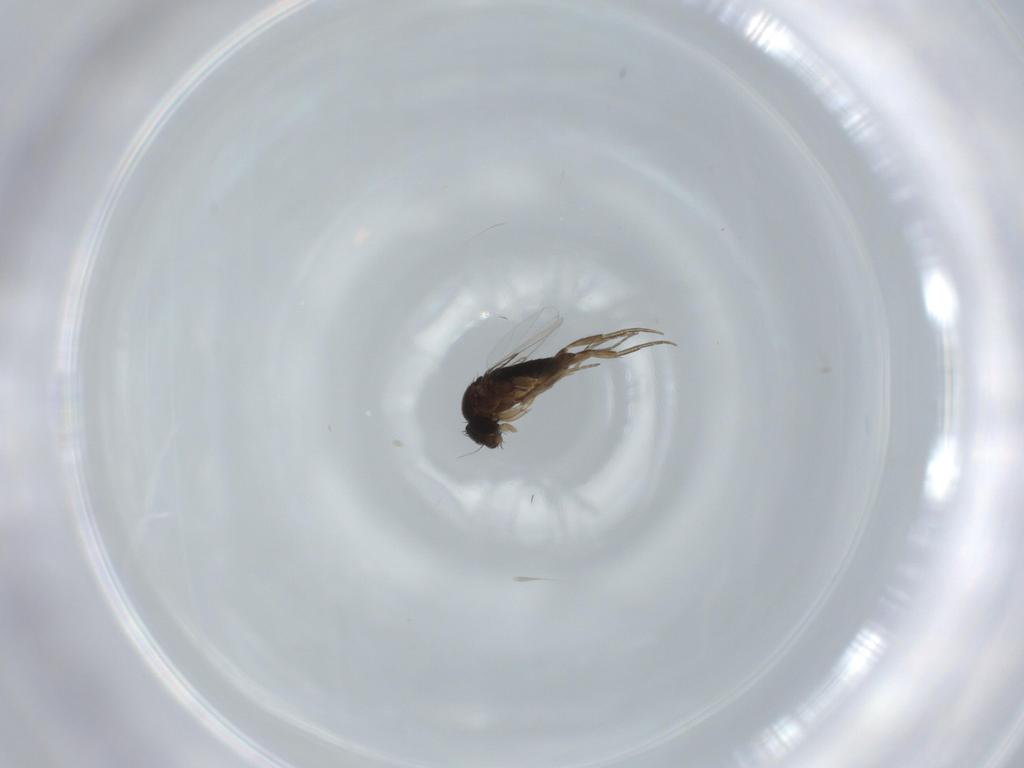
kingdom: Animalia
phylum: Arthropoda
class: Insecta
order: Diptera
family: Phoridae
